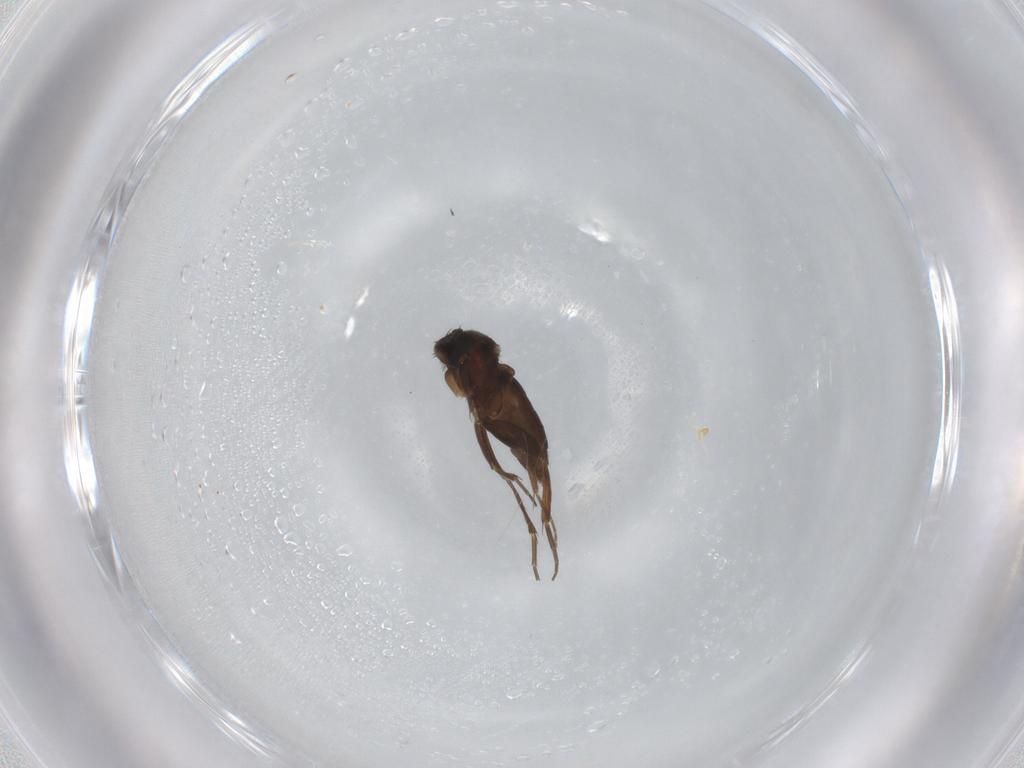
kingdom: Animalia
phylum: Arthropoda
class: Insecta
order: Diptera
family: Phoridae
